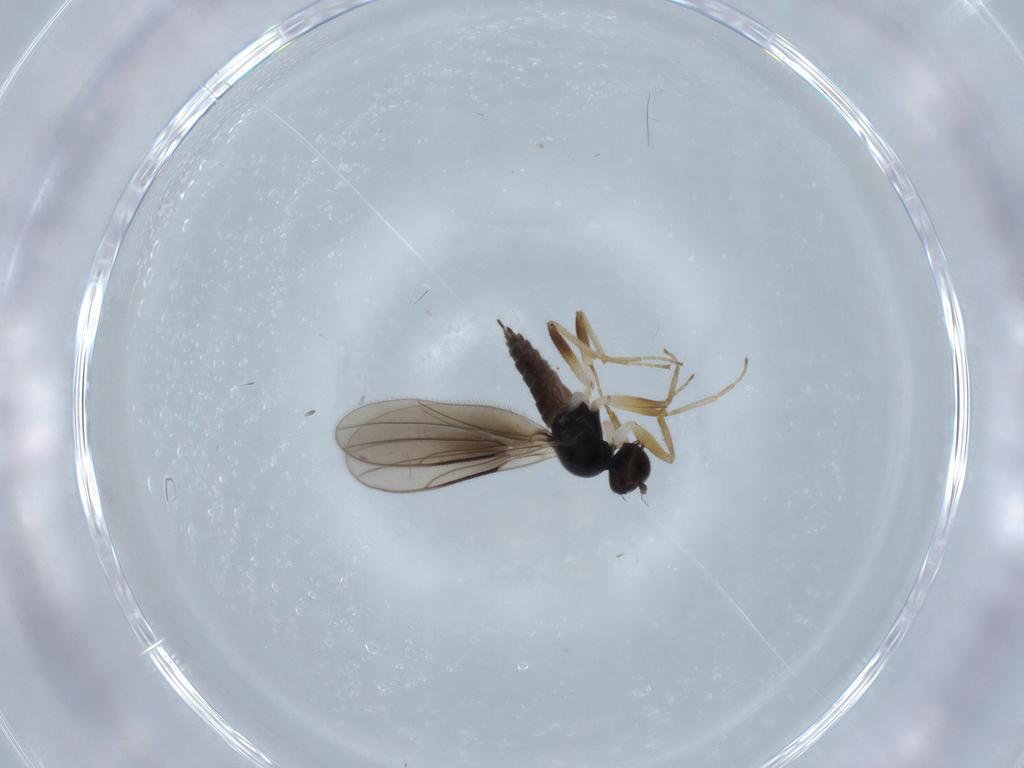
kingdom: Animalia
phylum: Arthropoda
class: Insecta
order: Diptera
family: Hybotidae
